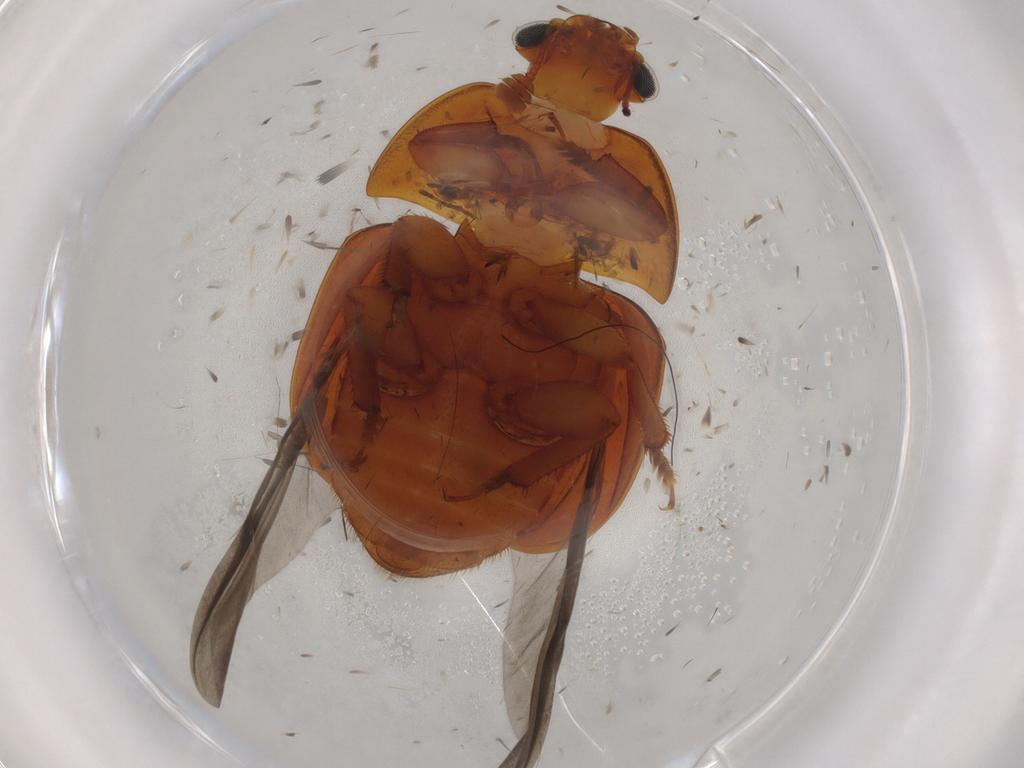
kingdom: Animalia
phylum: Arthropoda
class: Insecta
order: Coleoptera
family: Nitidulidae
